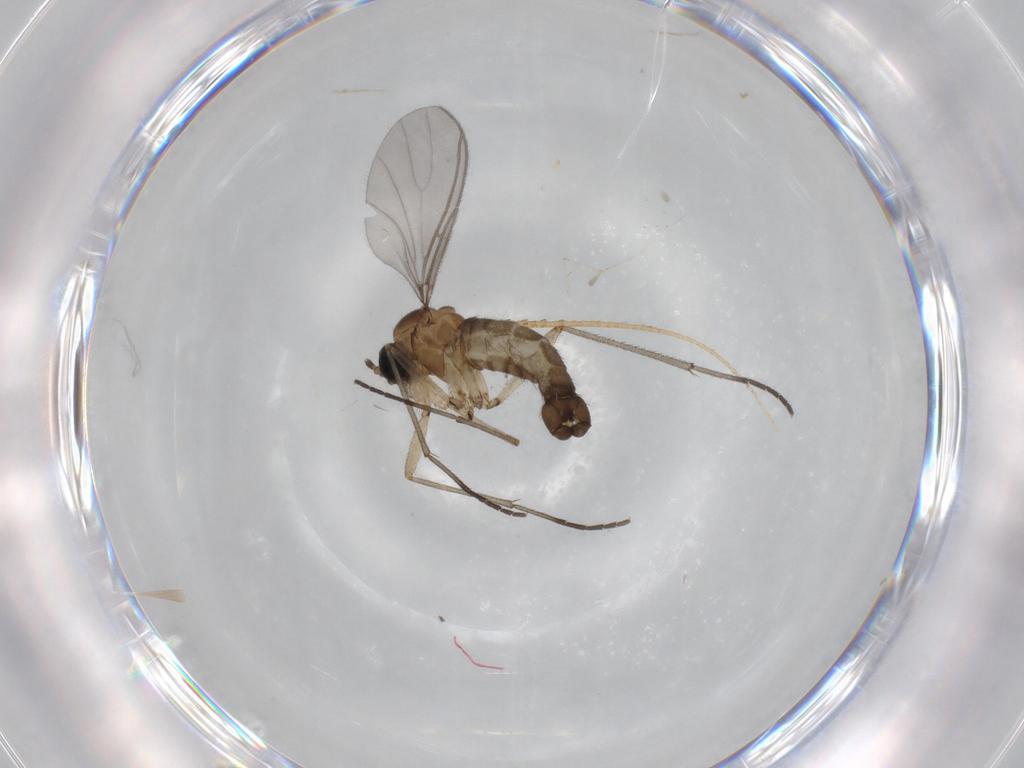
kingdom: Animalia
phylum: Arthropoda
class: Insecta
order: Diptera
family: Sciaridae
